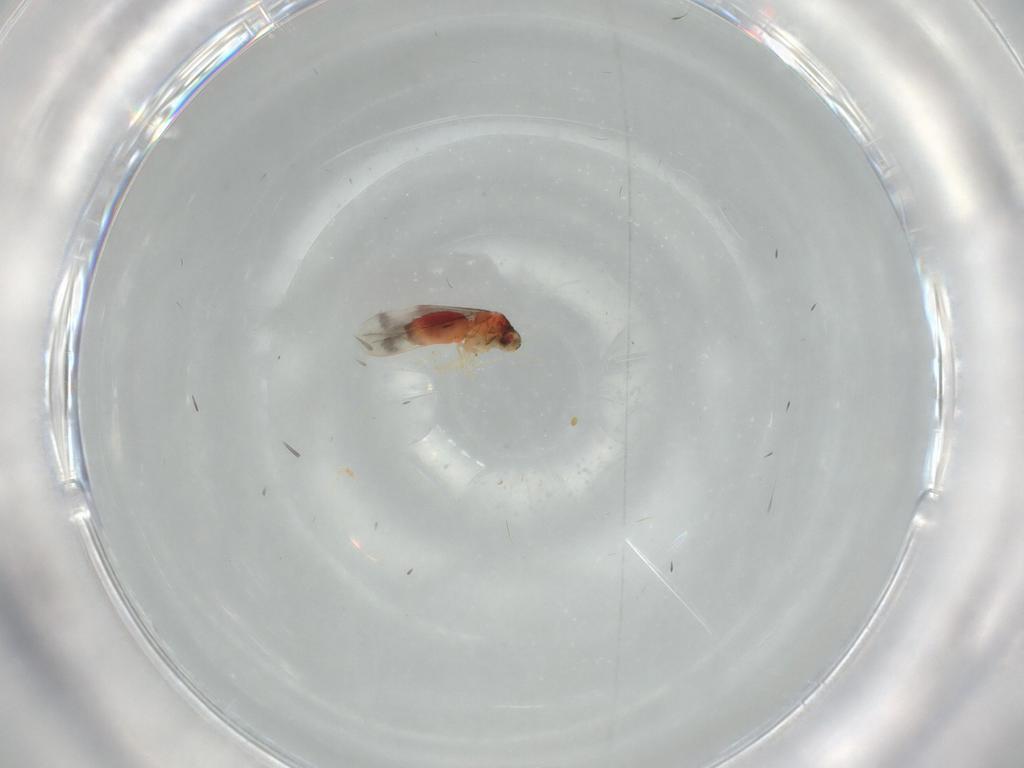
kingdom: Animalia
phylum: Arthropoda
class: Insecta
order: Hemiptera
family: Aleyrodidae
